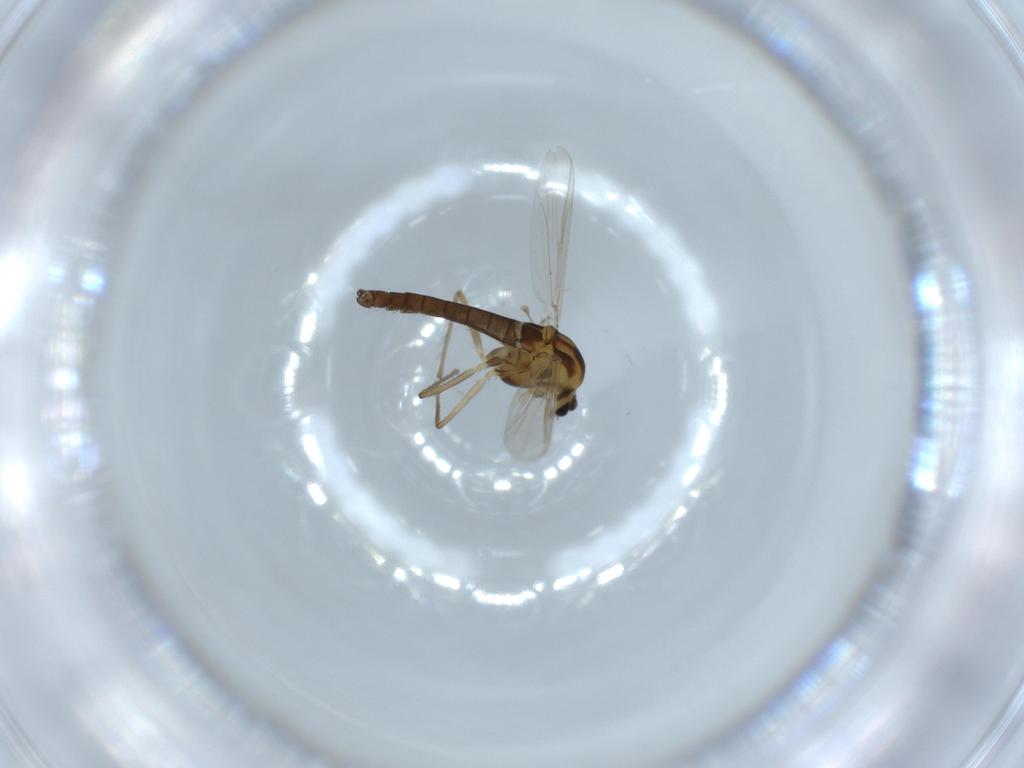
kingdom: Animalia
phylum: Arthropoda
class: Insecta
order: Diptera
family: Chironomidae
